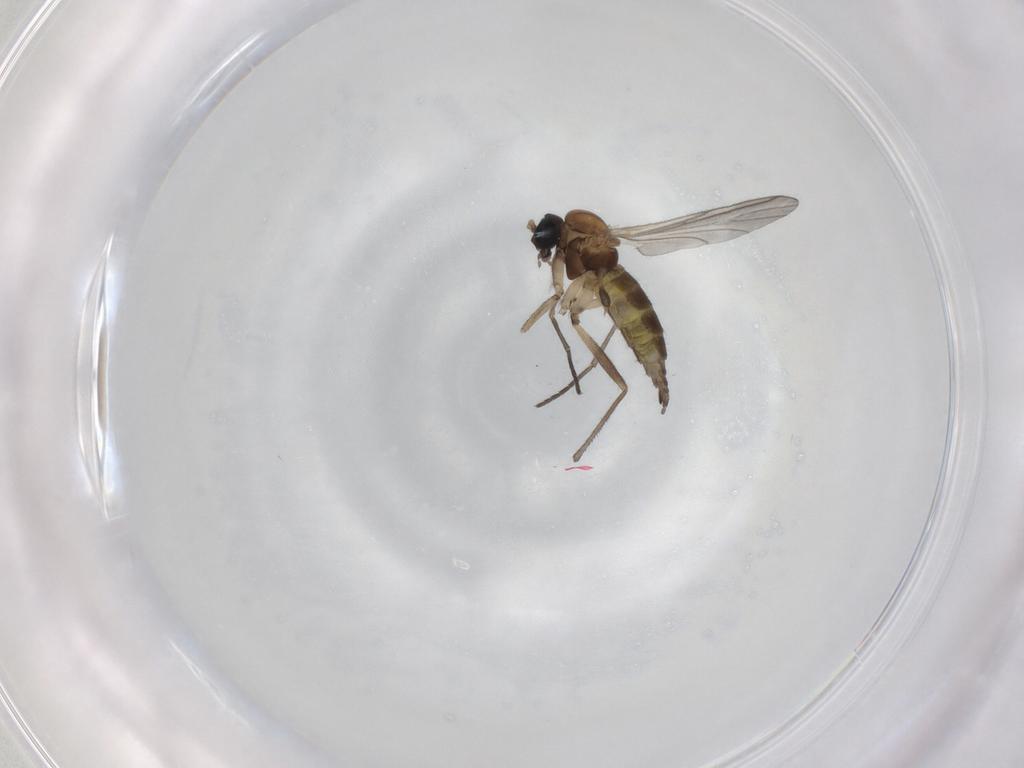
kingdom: Animalia
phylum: Arthropoda
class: Insecta
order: Diptera
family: Sciaridae
